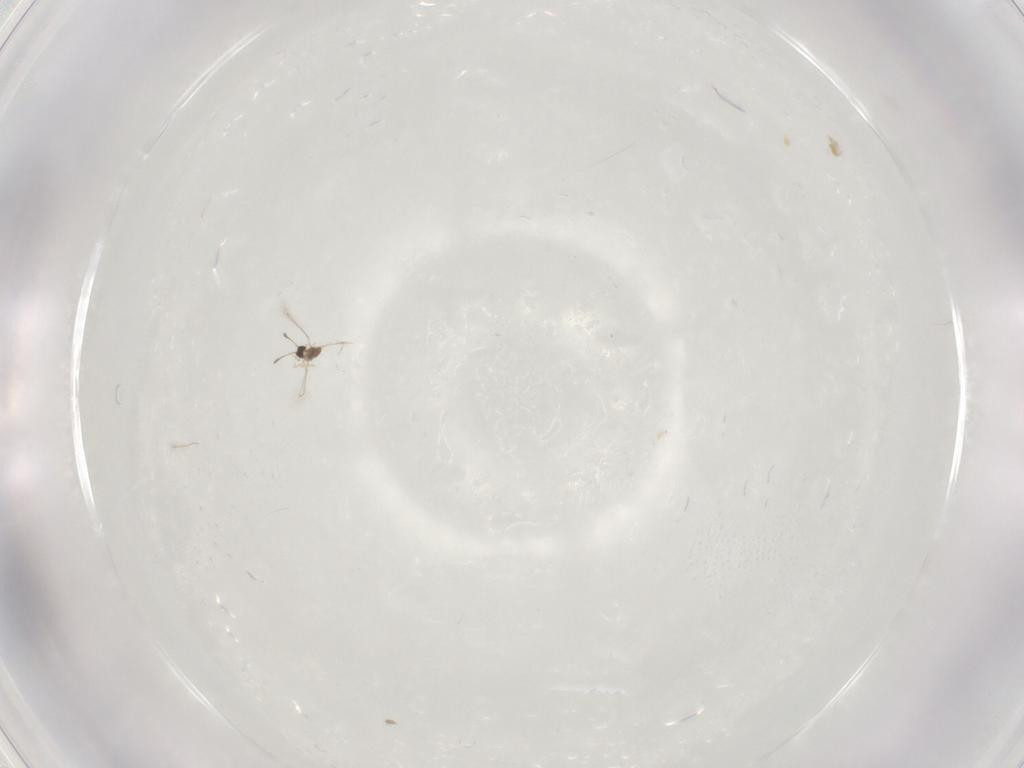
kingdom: Animalia
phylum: Arthropoda
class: Insecta
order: Hymenoptera
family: Mymaridae
